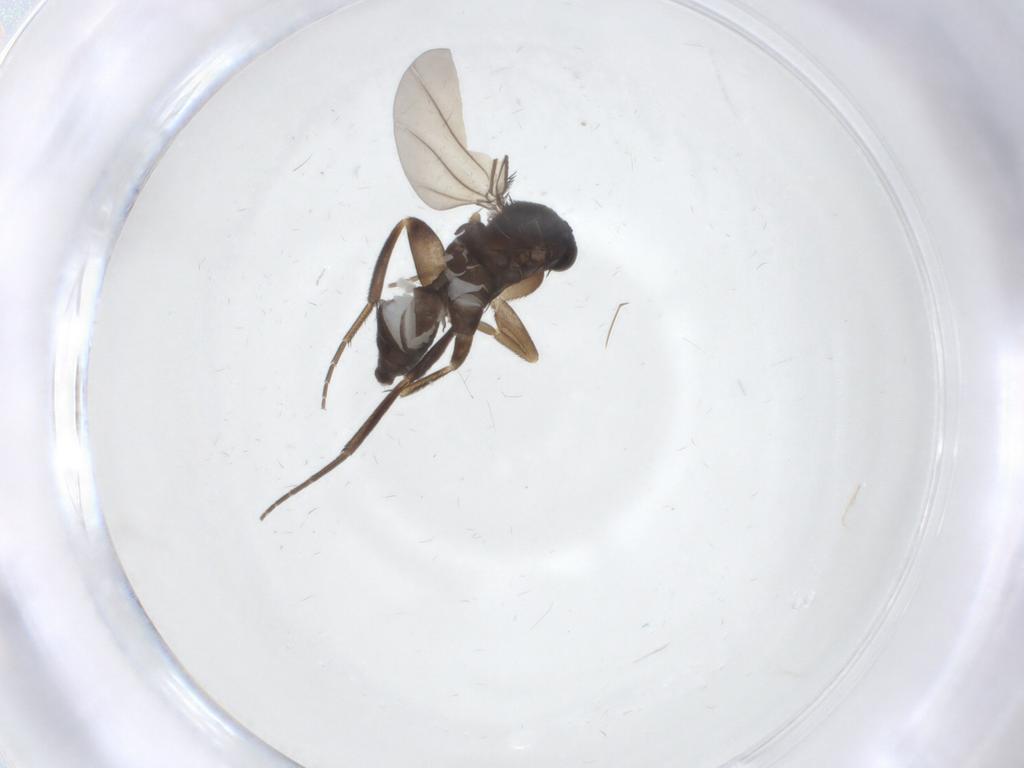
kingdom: Animalia
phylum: Arthropoda
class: Insecta
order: Diptera
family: Phoridae
